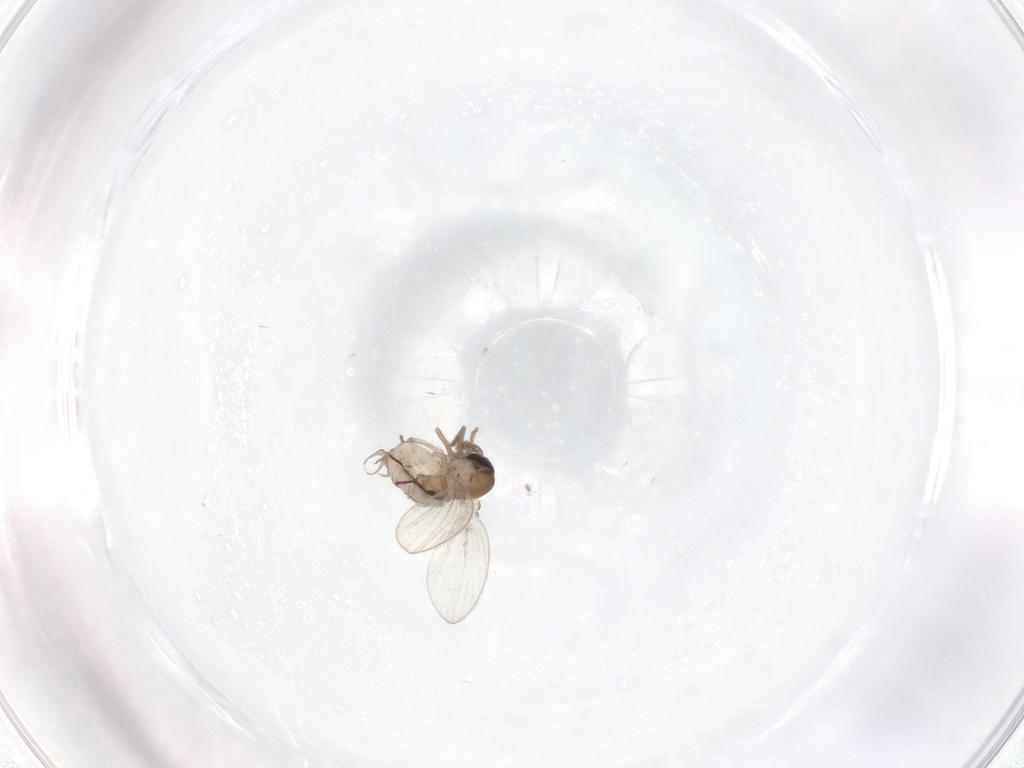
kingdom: Animalia
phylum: Arthropoda
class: Insecta
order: Diptera
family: Psychodidae
